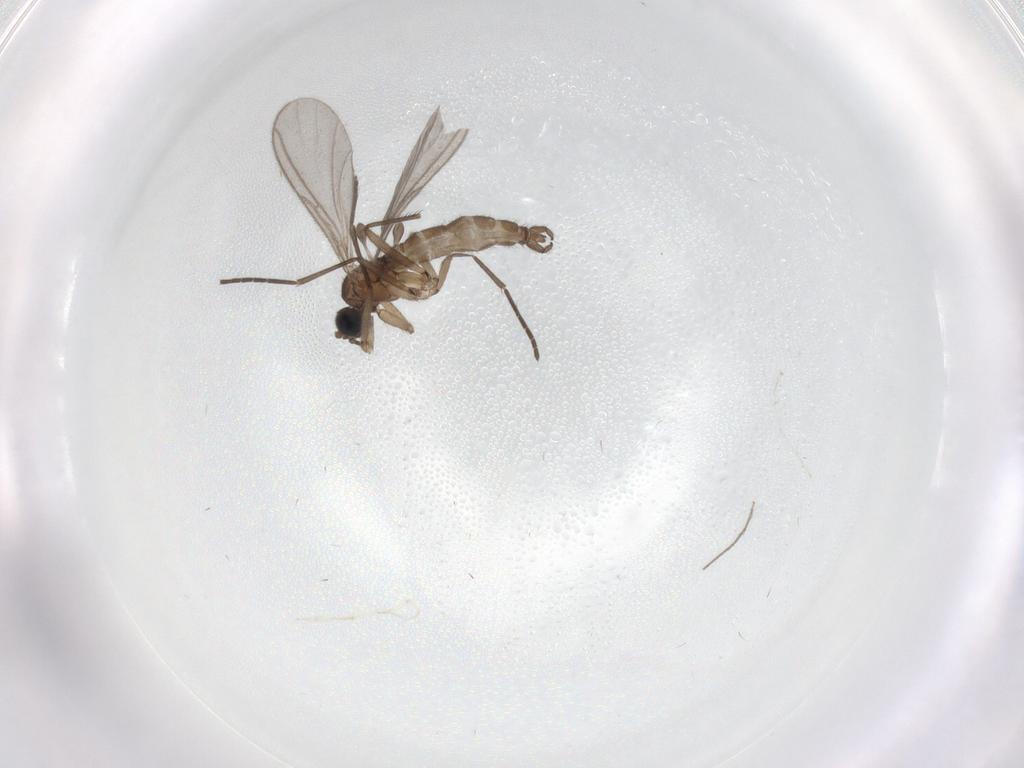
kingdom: Animalia
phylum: Arthropoda
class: Insecta
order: Diptera
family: Sciaridae
